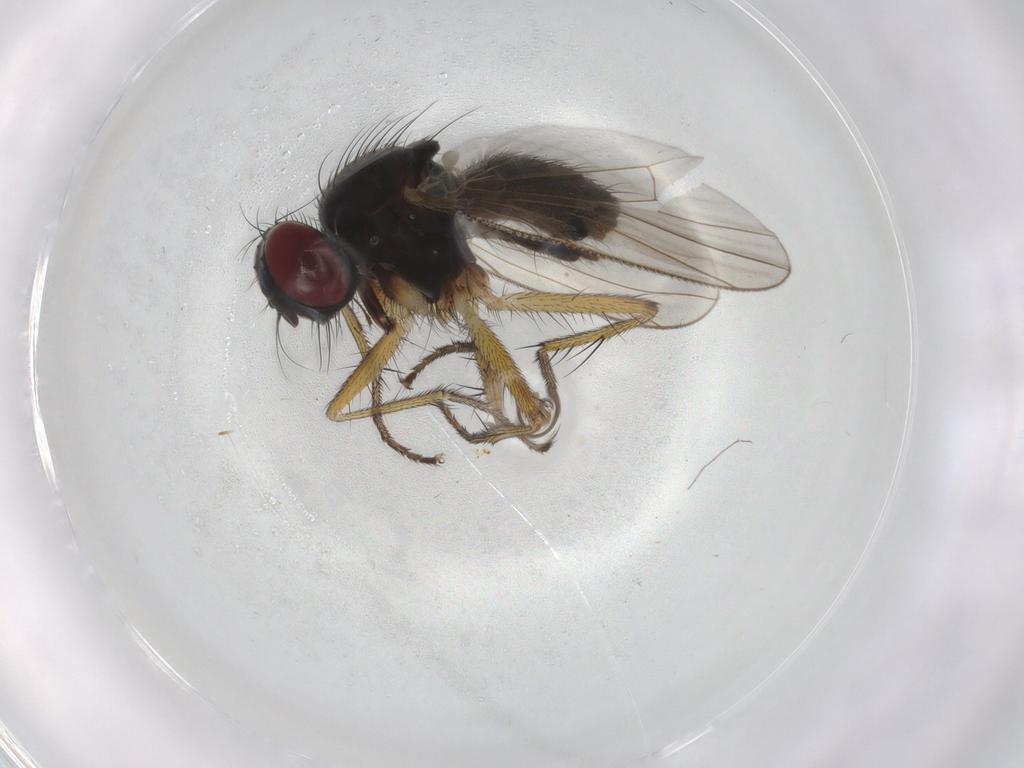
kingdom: Animalia
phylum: Arthropoda
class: Insecta
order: Diptera
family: Muscidae
